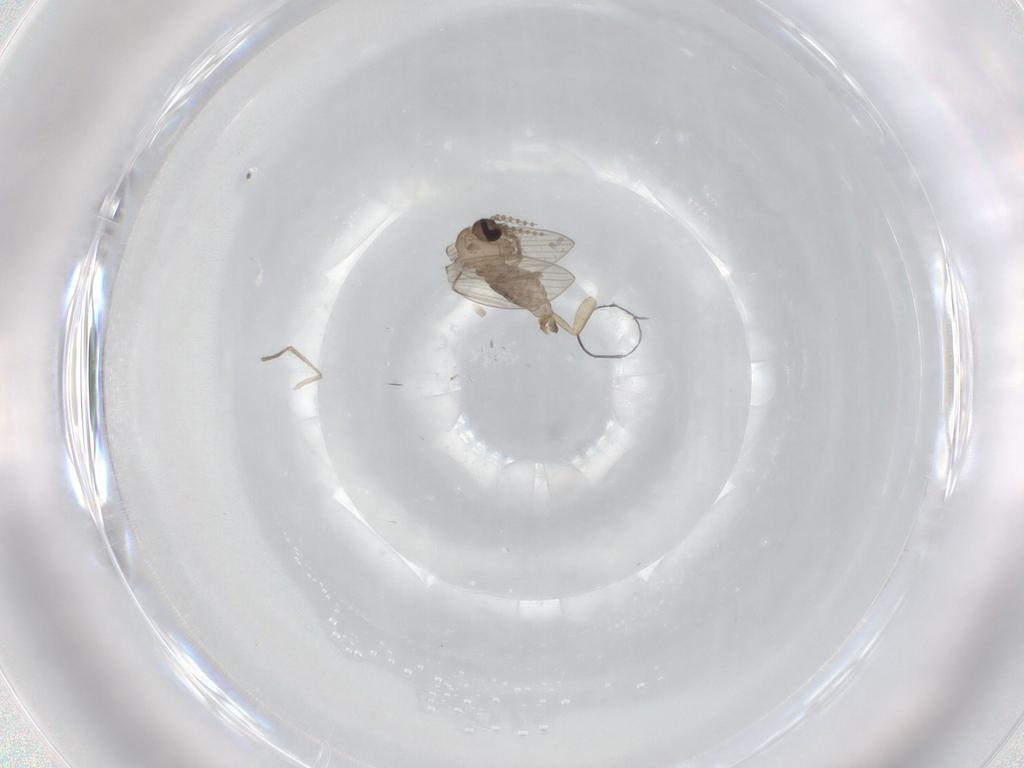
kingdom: Animalia
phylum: Arthropoda
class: Insecta
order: Diptera
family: Psychodidae
